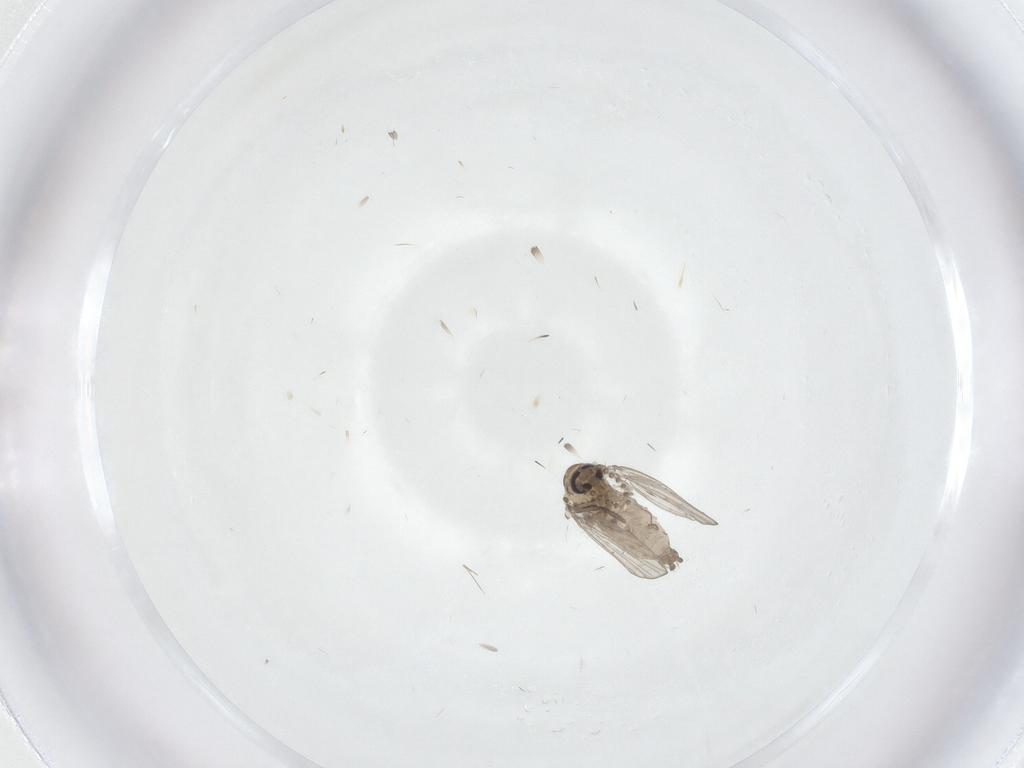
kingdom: Animalia
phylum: Arthropoda
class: Insecta
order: Diptera
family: Psychodidae
